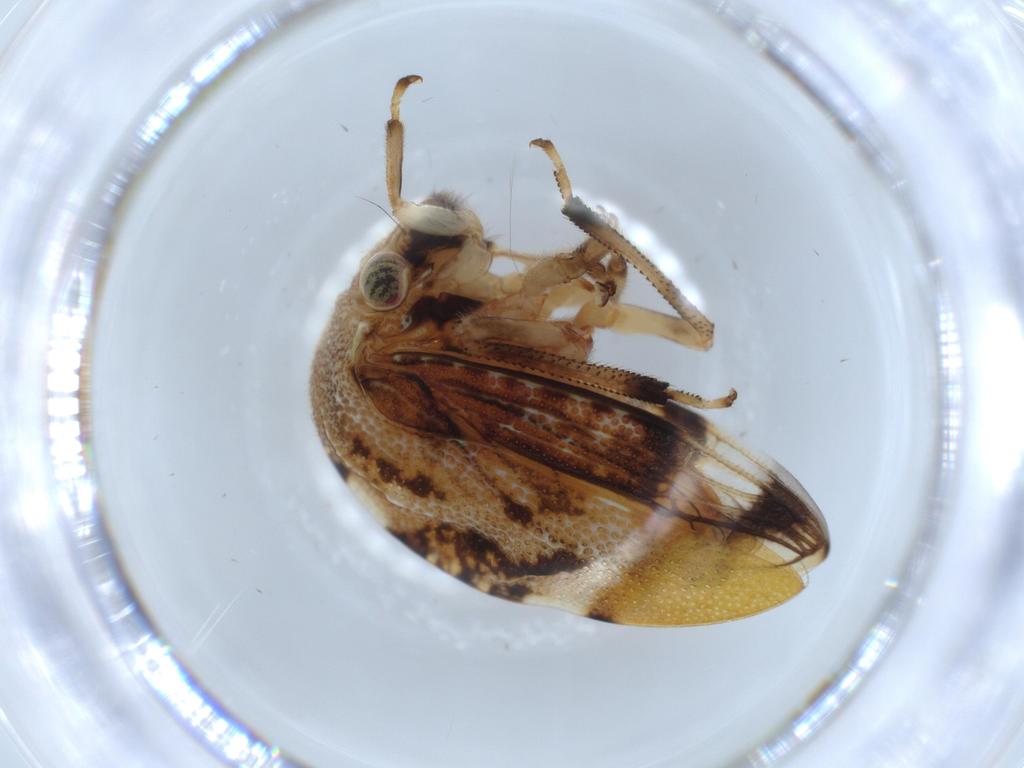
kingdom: Animalia
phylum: Arthropoda
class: Insecta
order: Hemiptera
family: Membracidae
